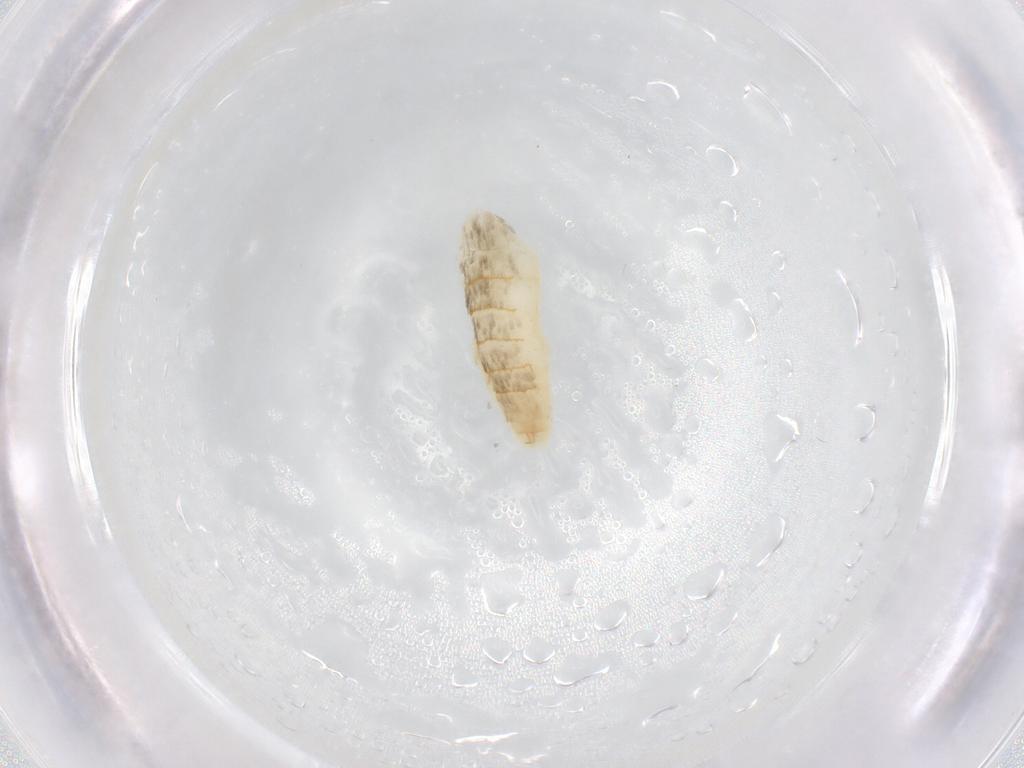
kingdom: Animalia
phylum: Arthropoda
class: Insecta
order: Lepidoptera
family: Stathmopodidae
